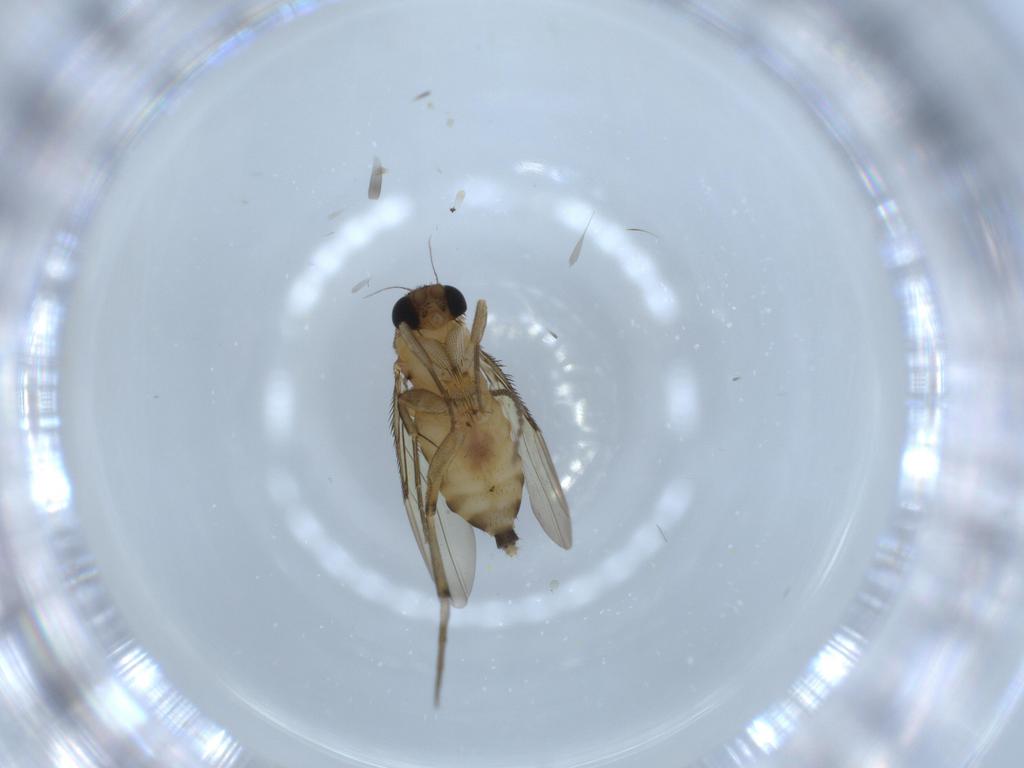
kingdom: Animalia
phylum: Arthropoda
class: Insecta
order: Diptera
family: Phoridae
